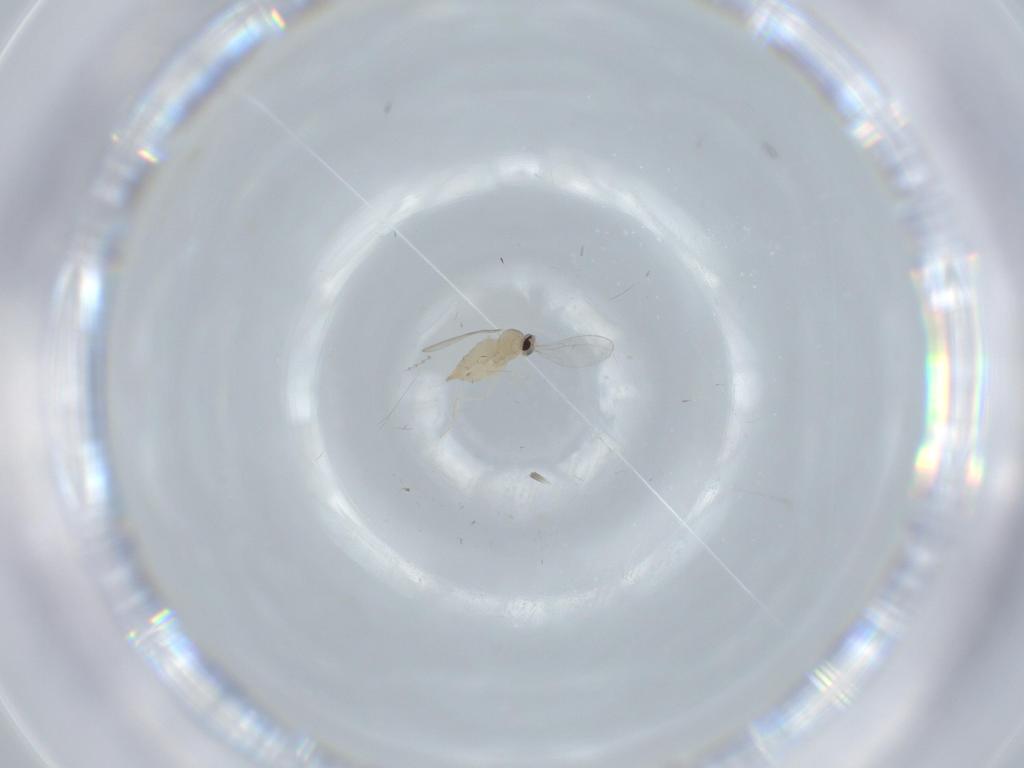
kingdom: Animalia
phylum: Arthropoda
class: Insecta
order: Diptera
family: Cecidomyiidae
